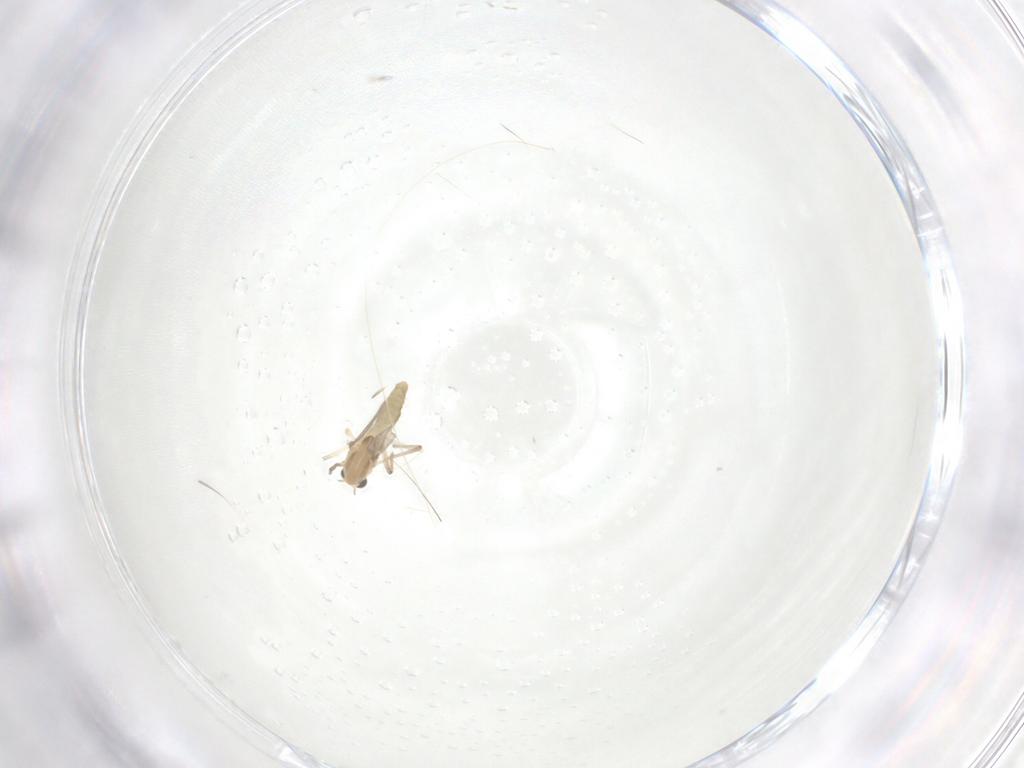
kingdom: Animalia
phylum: Arthropoda
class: Insecta
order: Diptera
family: Chironomidae
